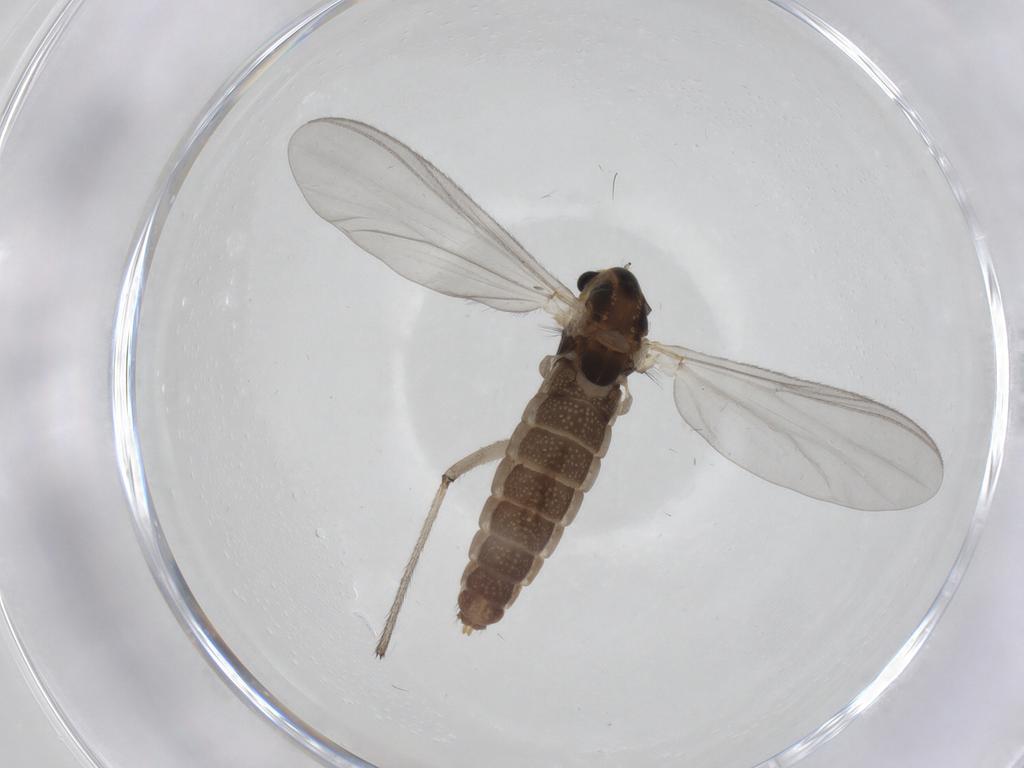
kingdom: Animalia
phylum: Arthropoda
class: Insecta
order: Diptera
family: Chironomidae
